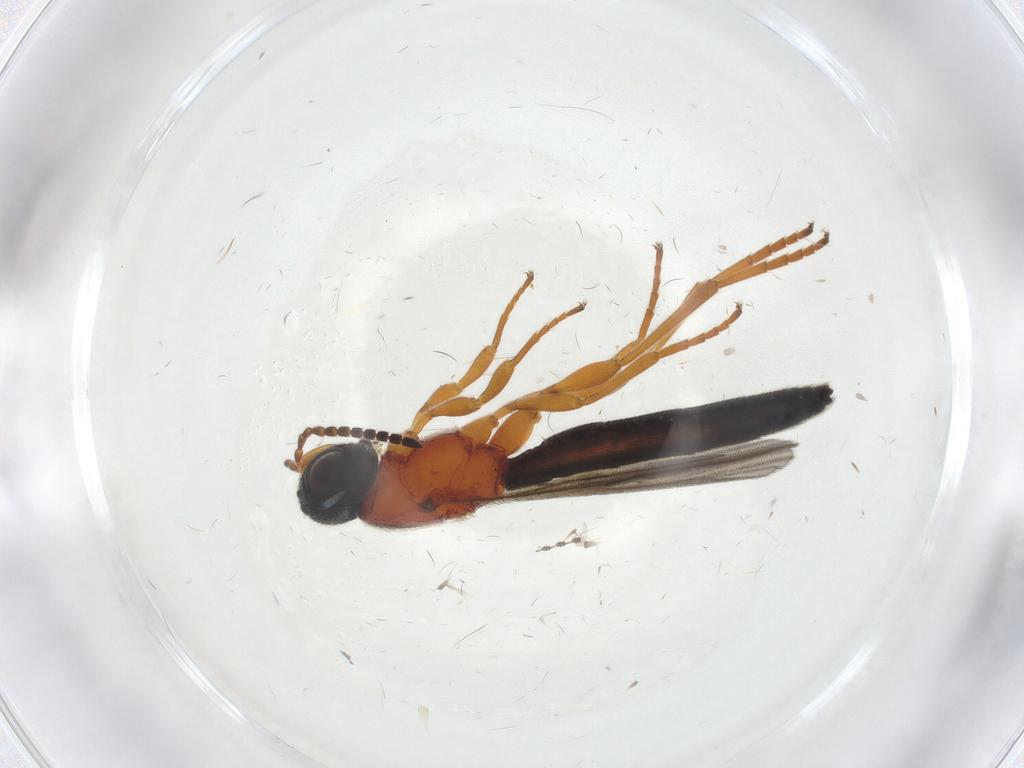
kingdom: Animalia
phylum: Arthropoda
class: Insecta
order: Hymenoptera
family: Scelionidae
